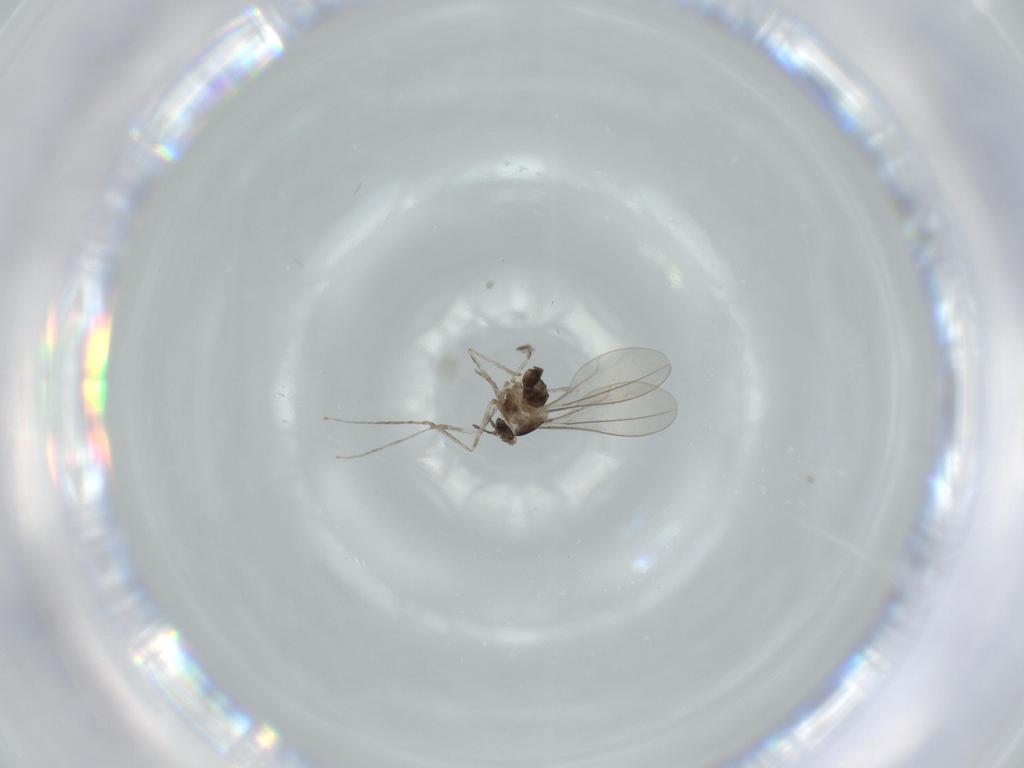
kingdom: Animalia
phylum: Arthropoda
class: Insecta
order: Diptera
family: Cecidomyiidae
